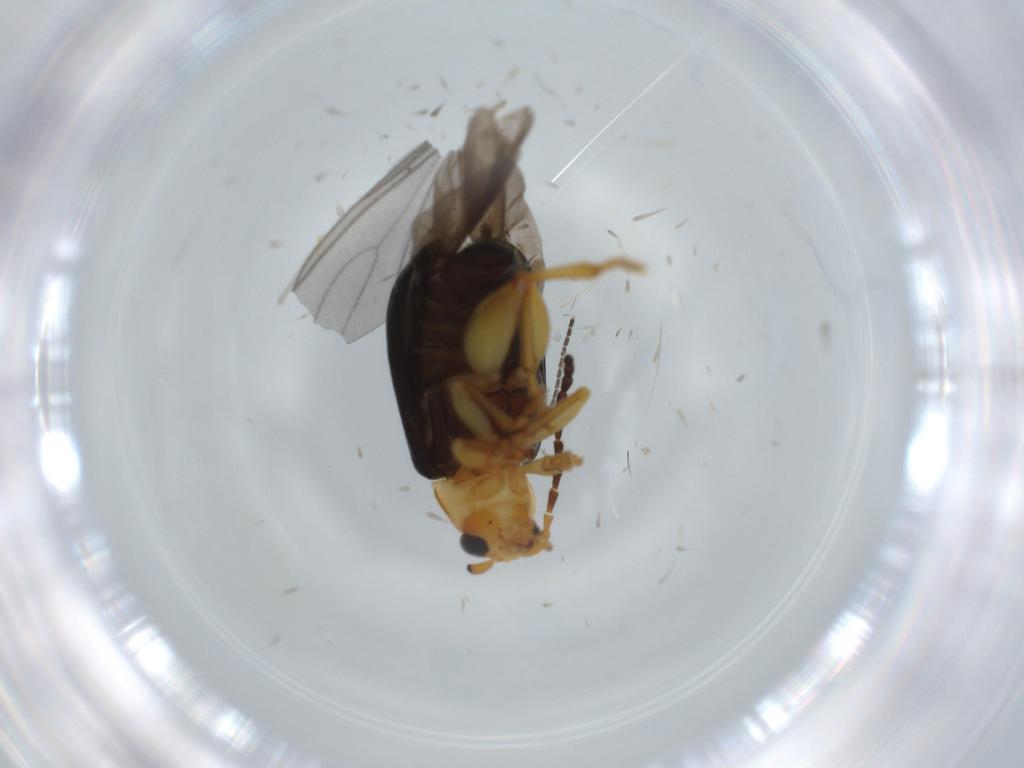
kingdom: Animalia
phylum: Arthropoda
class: Insecta
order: Coleoptera
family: Chrysomelidae
